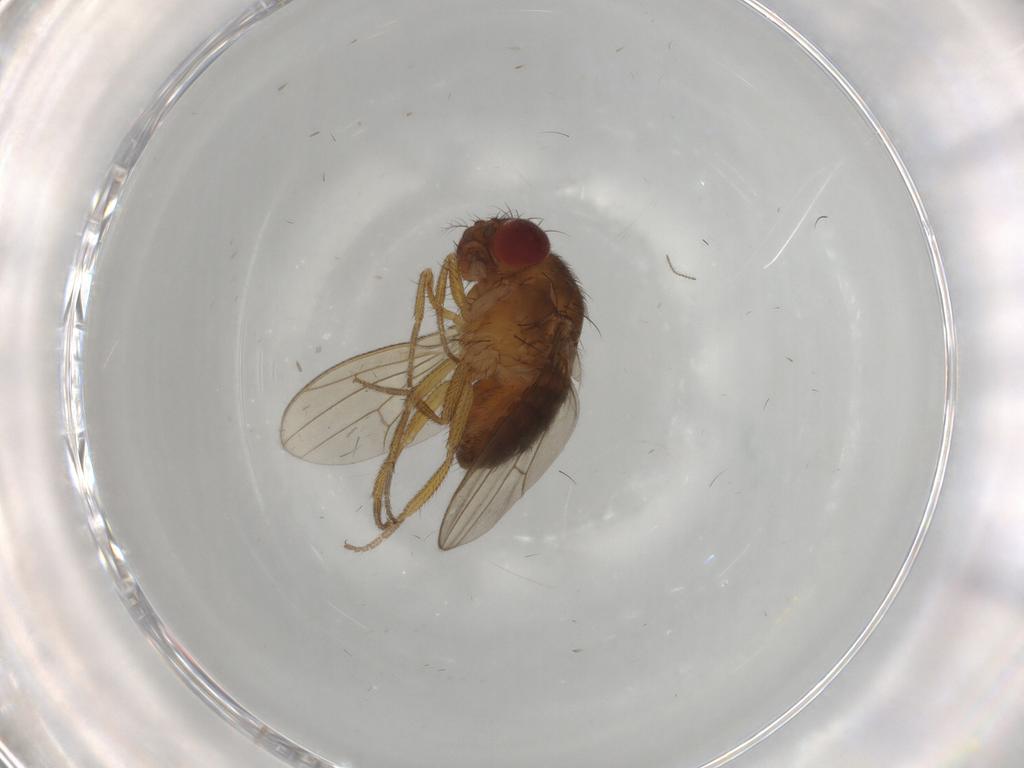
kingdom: Animalia
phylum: Arthropoda
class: Insecta
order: Diptera
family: Drosophilidae
